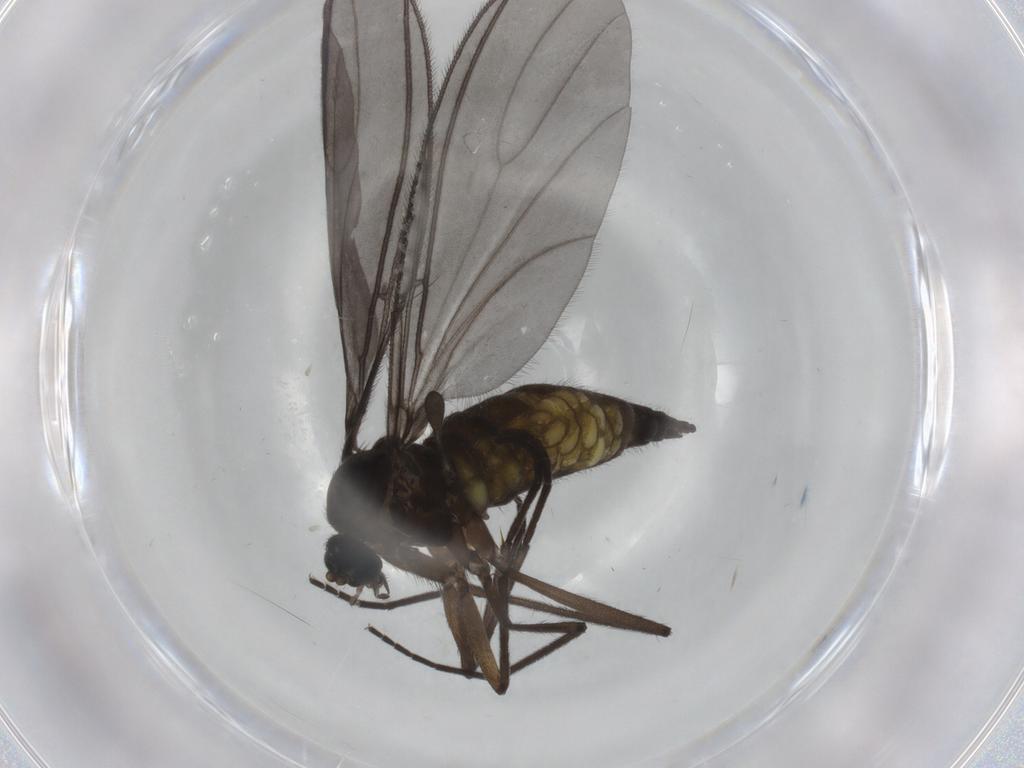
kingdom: Animalia
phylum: Arthropoda
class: Insecta
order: Diptera
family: Sciaridae
